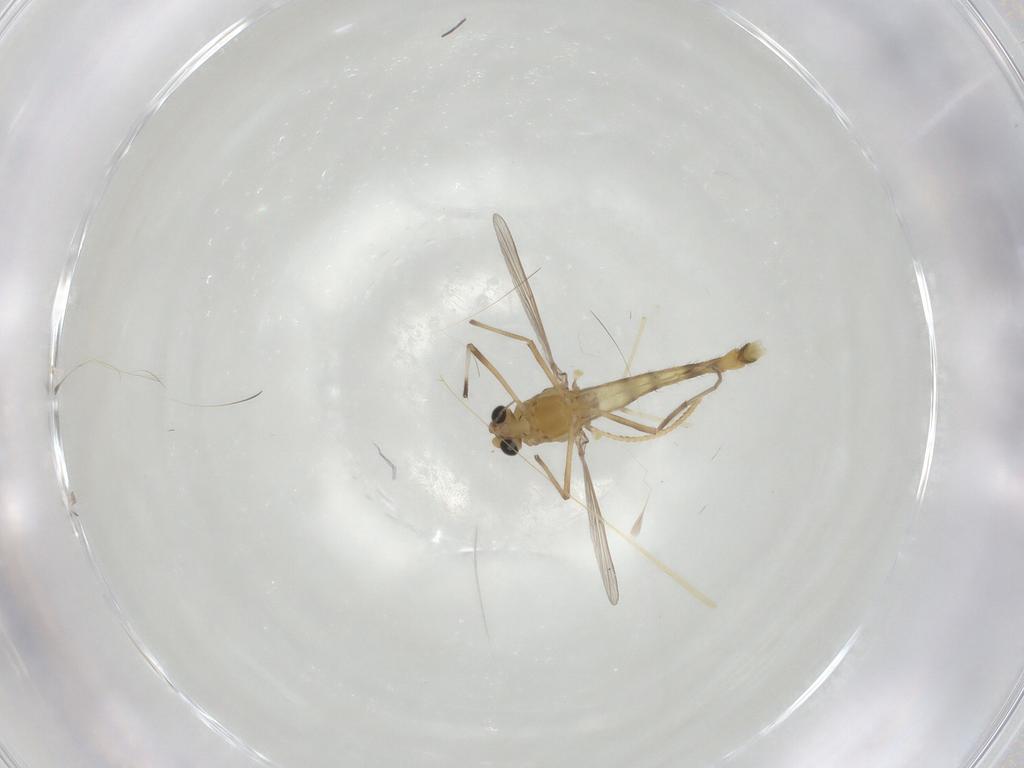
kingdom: Animalia
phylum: Arthropoda
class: Insecta
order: Diptera
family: Chironomidae
